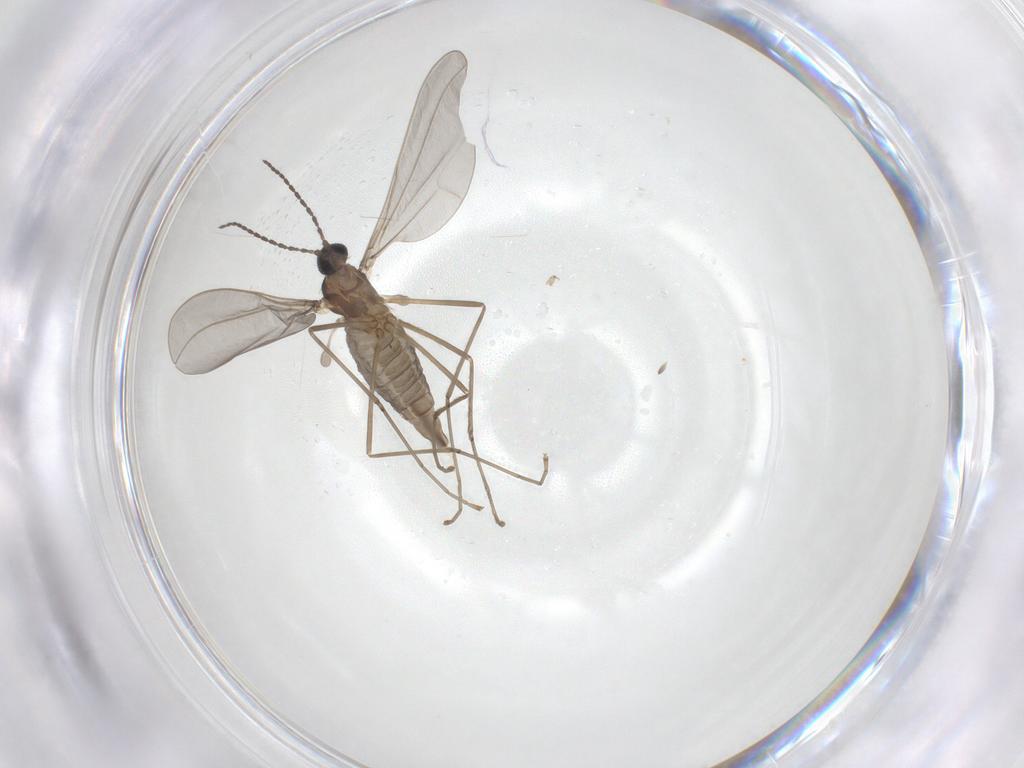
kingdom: Animalia
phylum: Arthropoda
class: Insecta
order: Diptera
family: Cecidomyiidae
